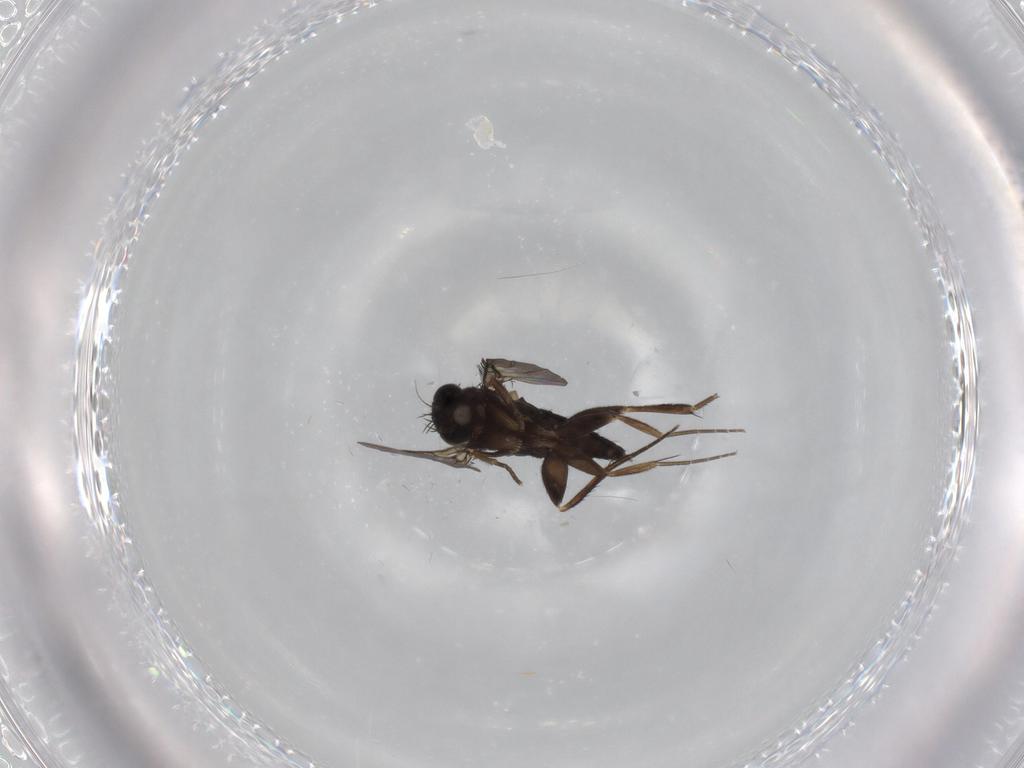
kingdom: Animalia
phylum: Arthropoda
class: Insecta
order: Diptera
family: Phoridae
